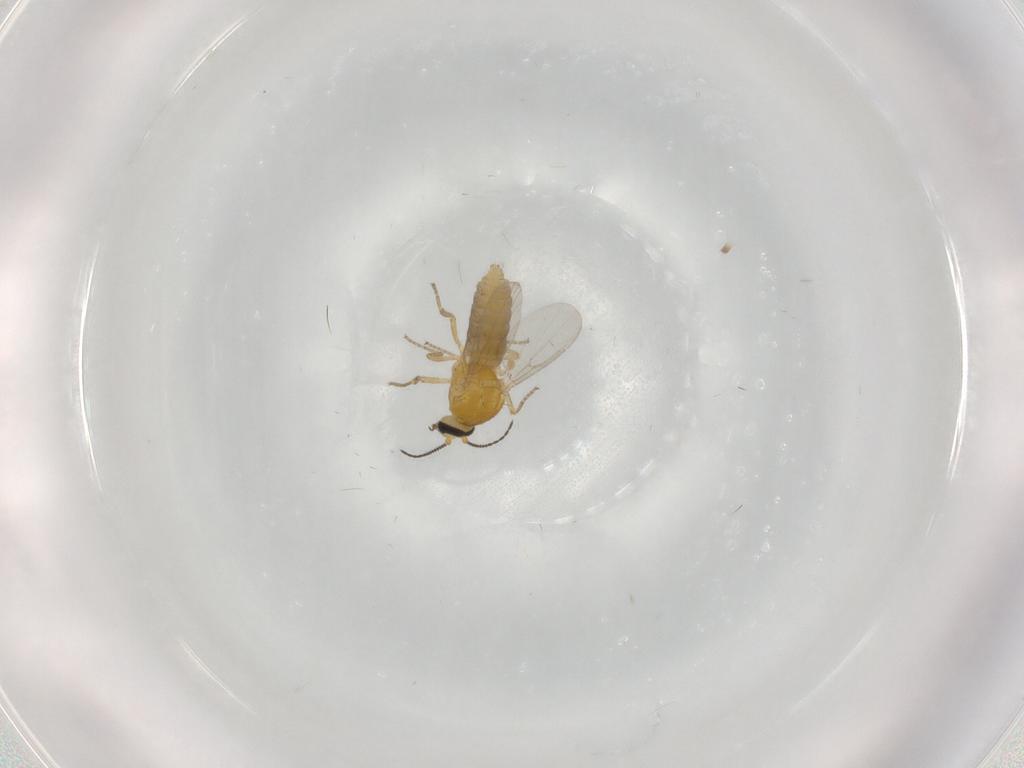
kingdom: Animalia
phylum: Arthropoda
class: Insecta
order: Diptera
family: Ceratopogonidae
